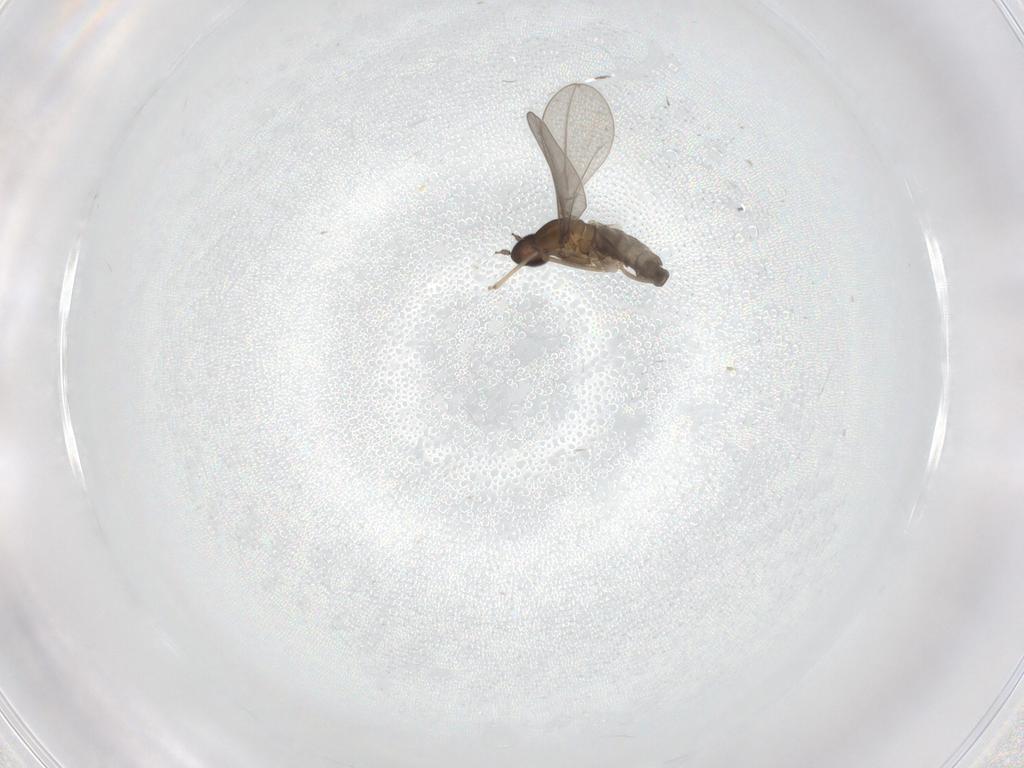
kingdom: Animalia
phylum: Arthropoda
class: Insecta
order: Diptera
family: Cecidomyiidae
